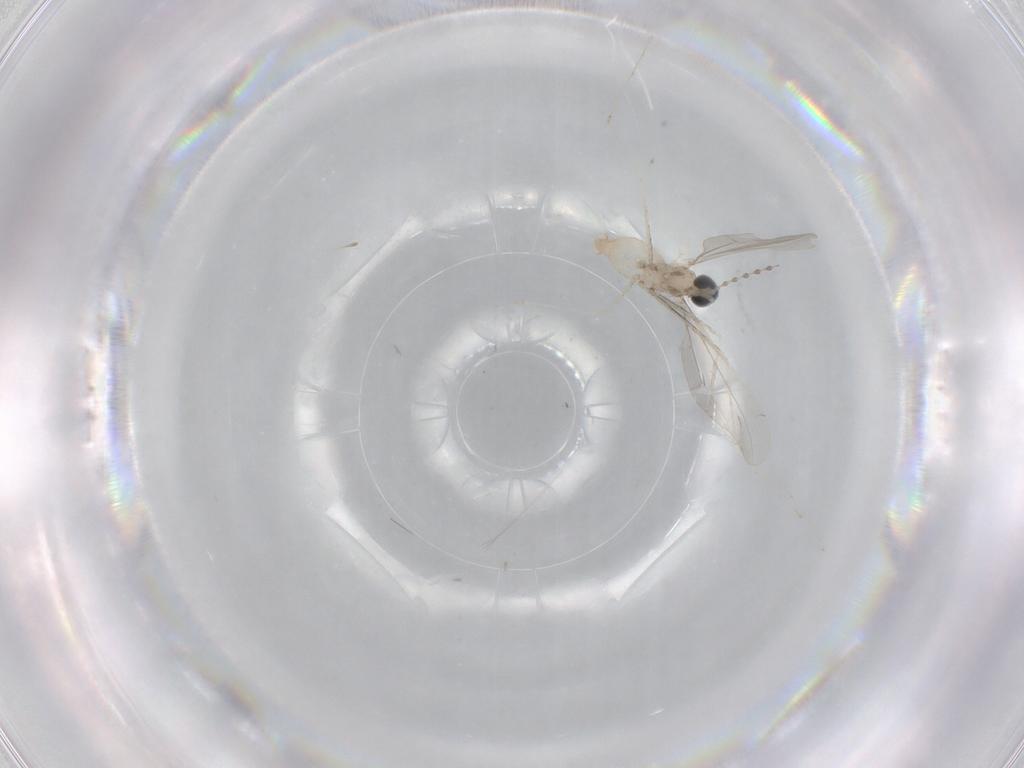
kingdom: Animalia
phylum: Arthropoda
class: Insecta
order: Diptera
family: Cecidomyiidae
